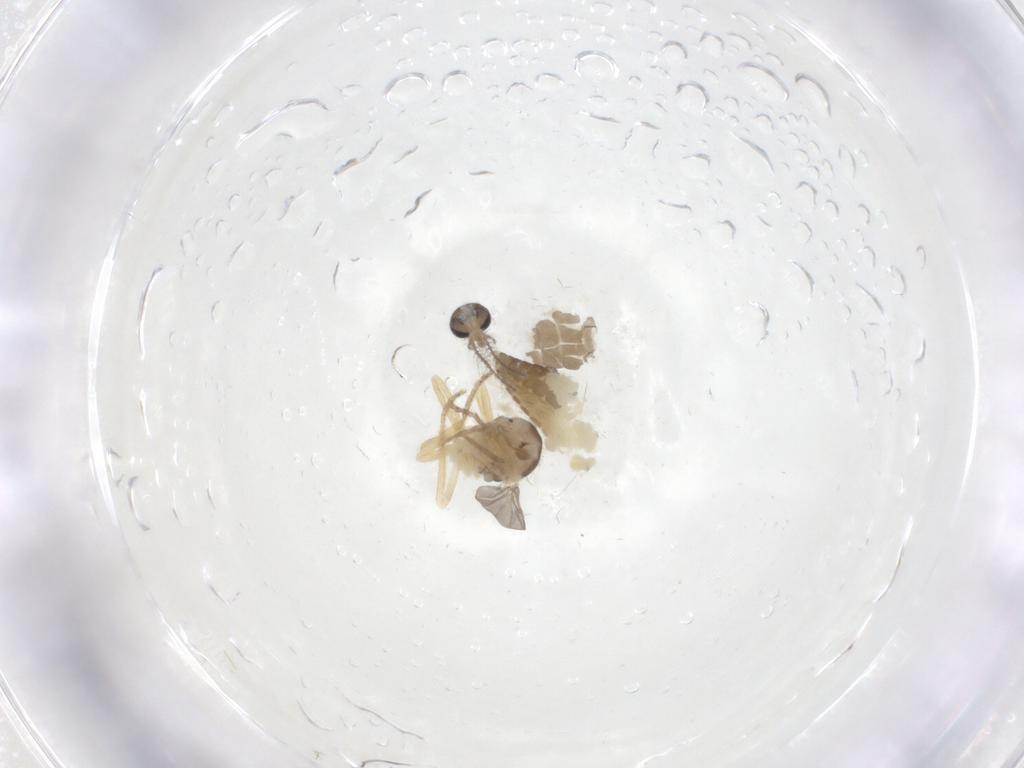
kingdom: Animalia
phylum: Arthropoda
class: Insecta
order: Diptera
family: Ceratopogonidae
